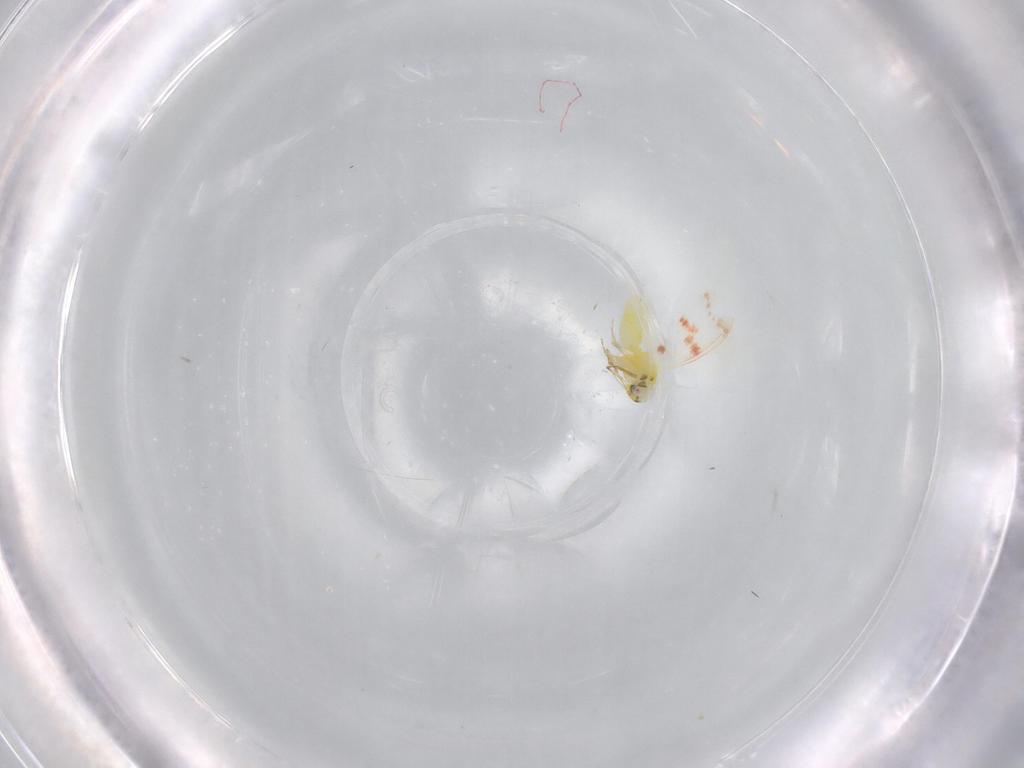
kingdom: Animalia
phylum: Arthropoda
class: Insecta
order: Hemiptera
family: Aleyrodidae
